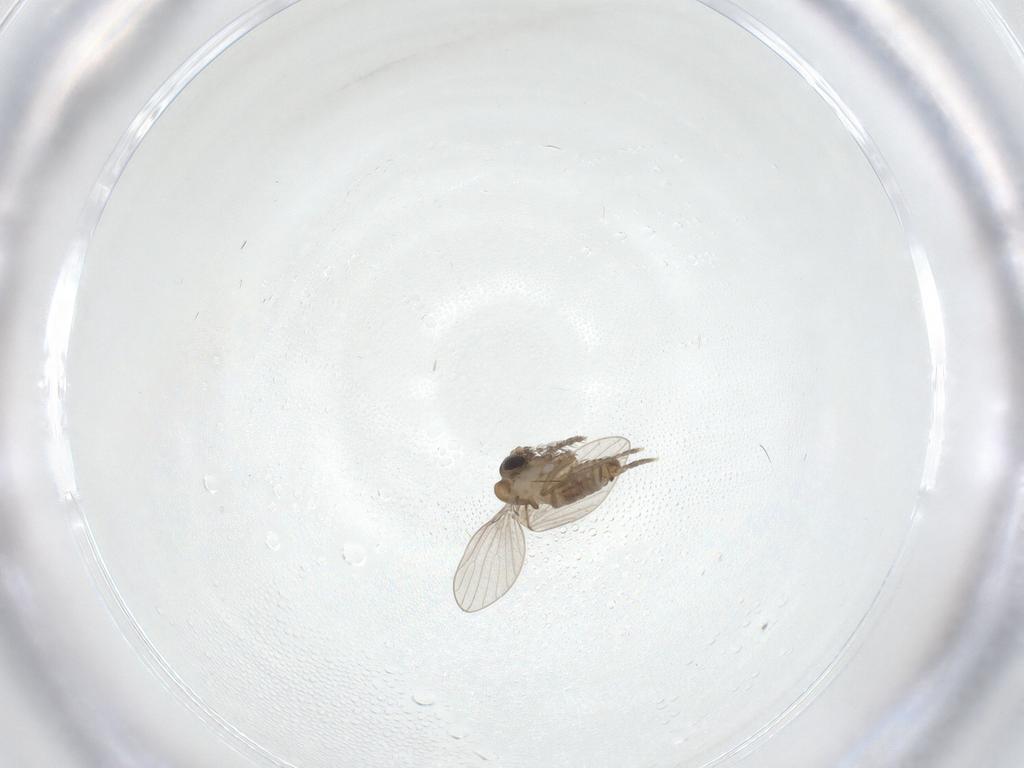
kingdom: Animalia
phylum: Arthropoda
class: Insecta
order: Diptera
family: Psychodidae
